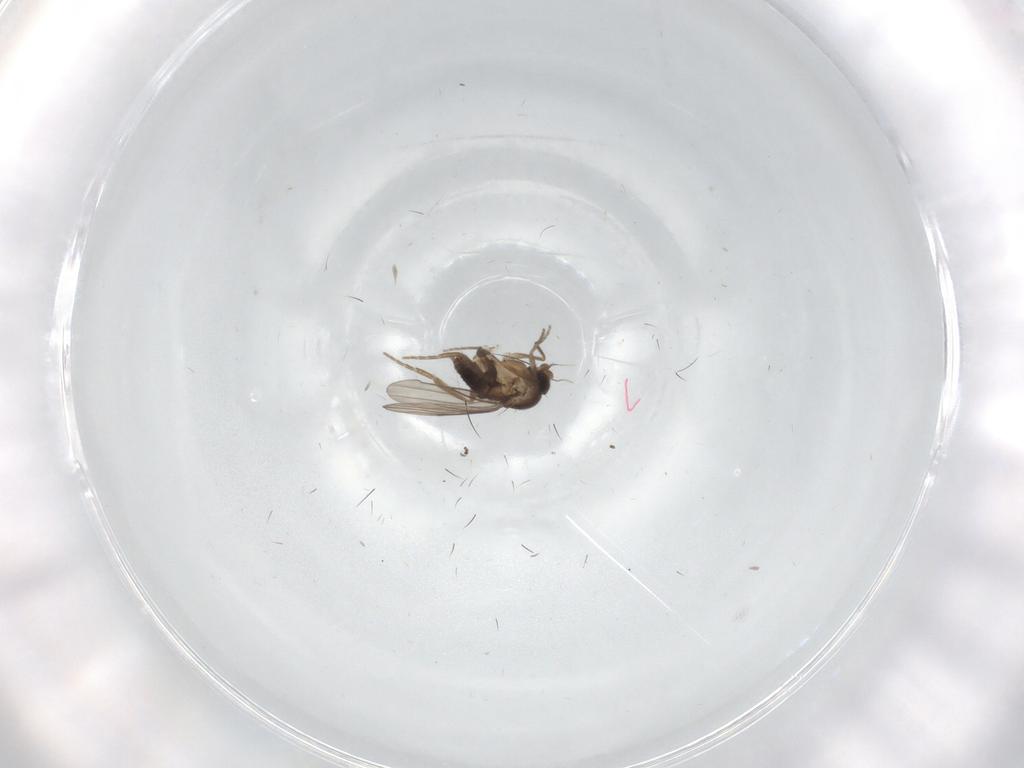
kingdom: Animalia
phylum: Arthropoda
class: Insecta
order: Diptera
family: Phoridae
